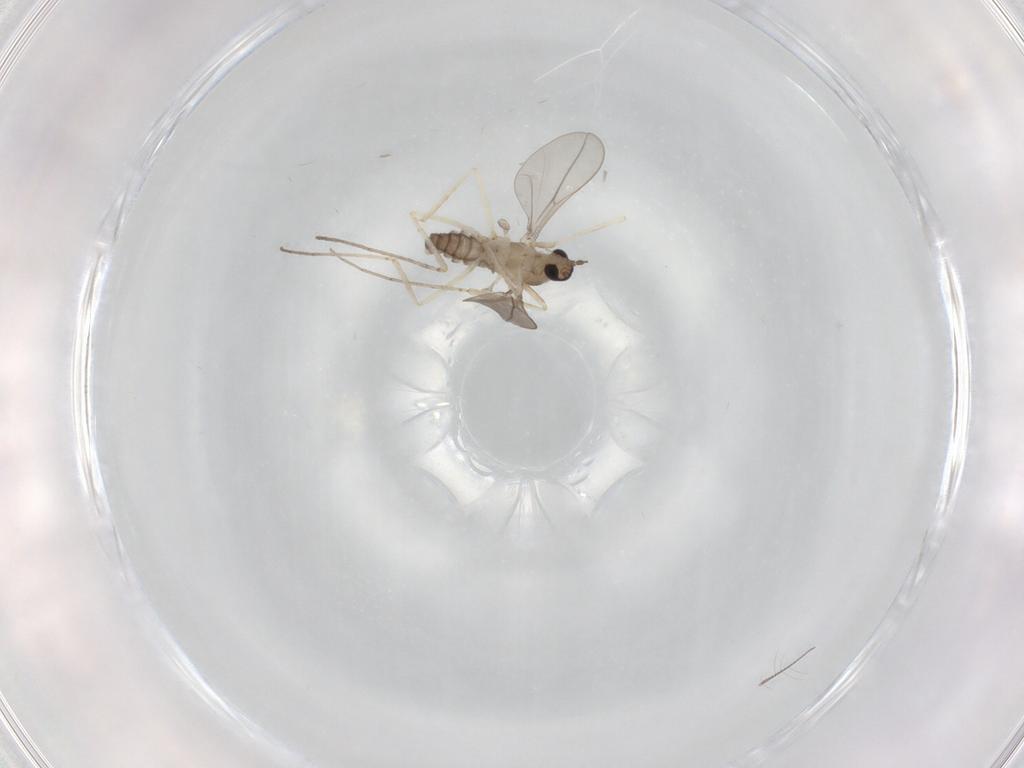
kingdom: Animalia
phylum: Arthropoda
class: Insecta
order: Diptera
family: Cecidomyiidae
